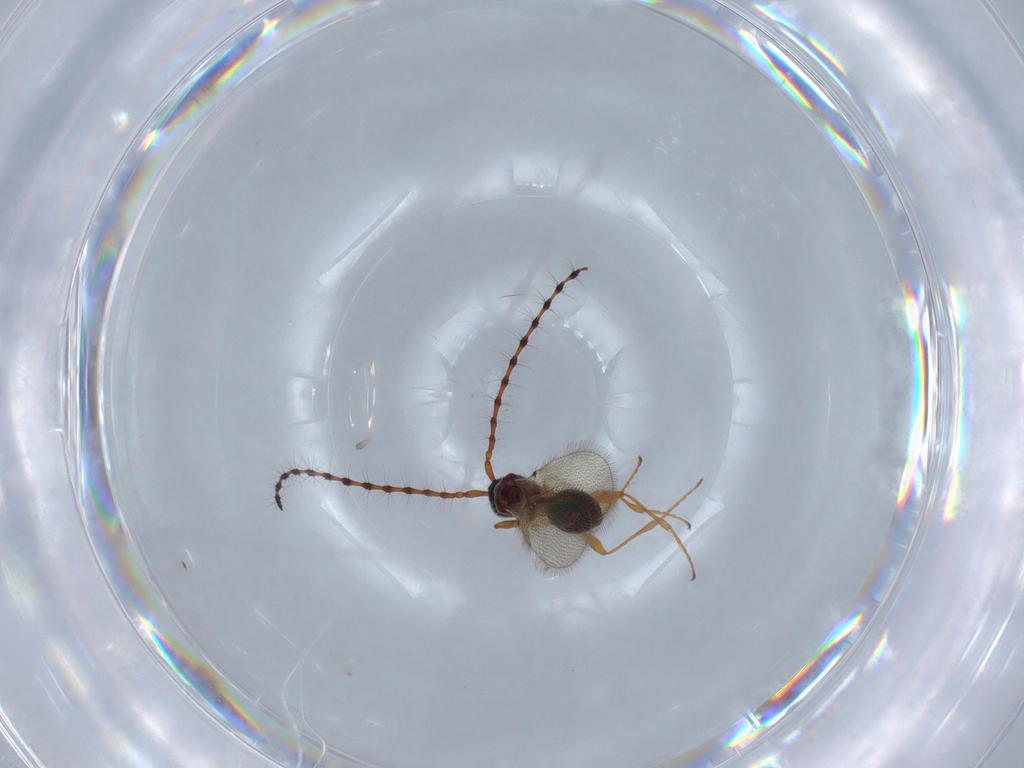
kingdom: Animalia
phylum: Arthropoda
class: Insecta
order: Hymenoptera
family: Diapriidae
